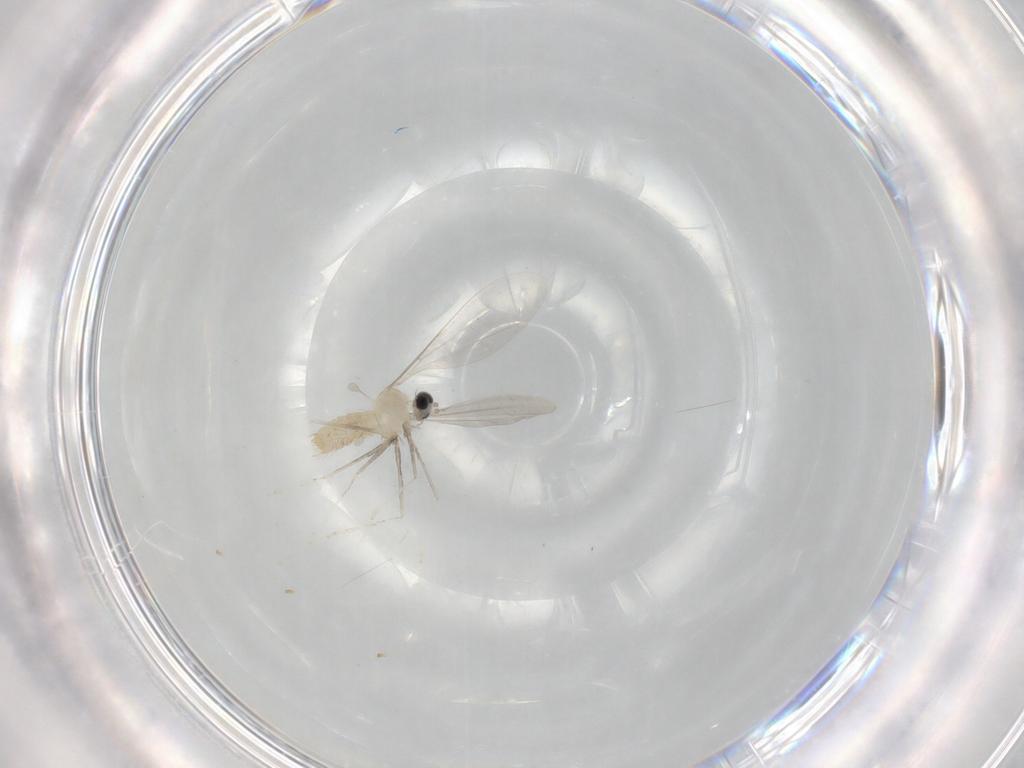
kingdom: Animalia
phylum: Arthropoda
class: Insecta
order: Diptera
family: Cecidomyiidae
